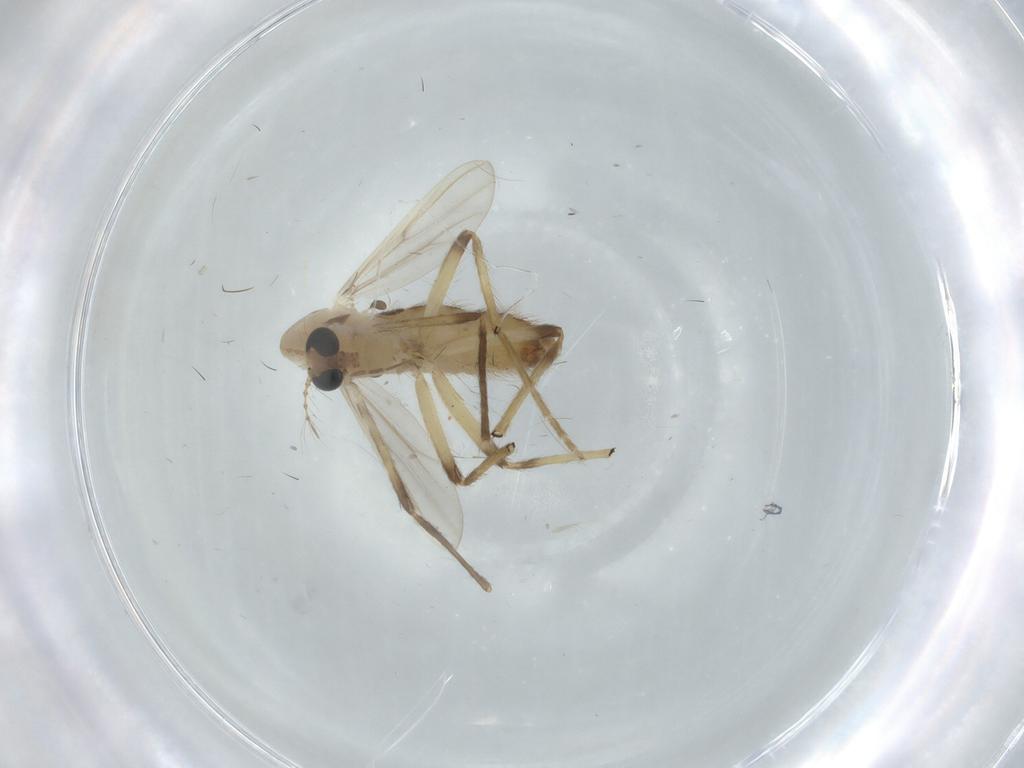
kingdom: Animalia
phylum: Arthropoda
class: Insecta
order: Diptera
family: Chironomidae
